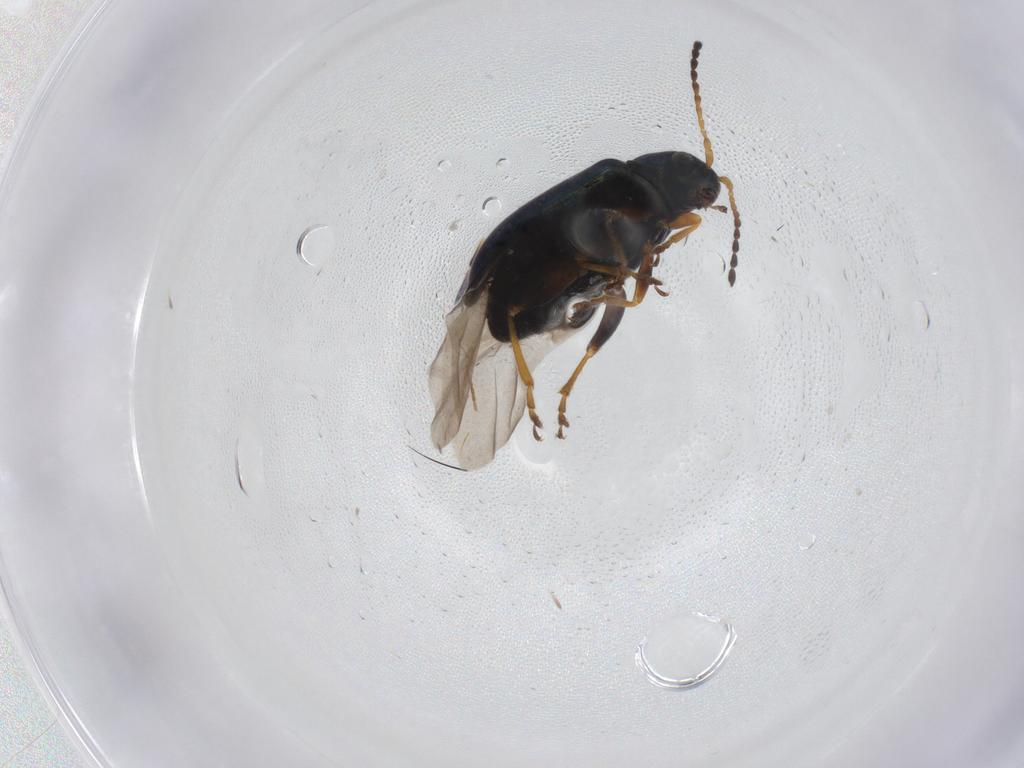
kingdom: Animalia
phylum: Arthropoda
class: Insecta
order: Coleoptera
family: Chrysomelidae
